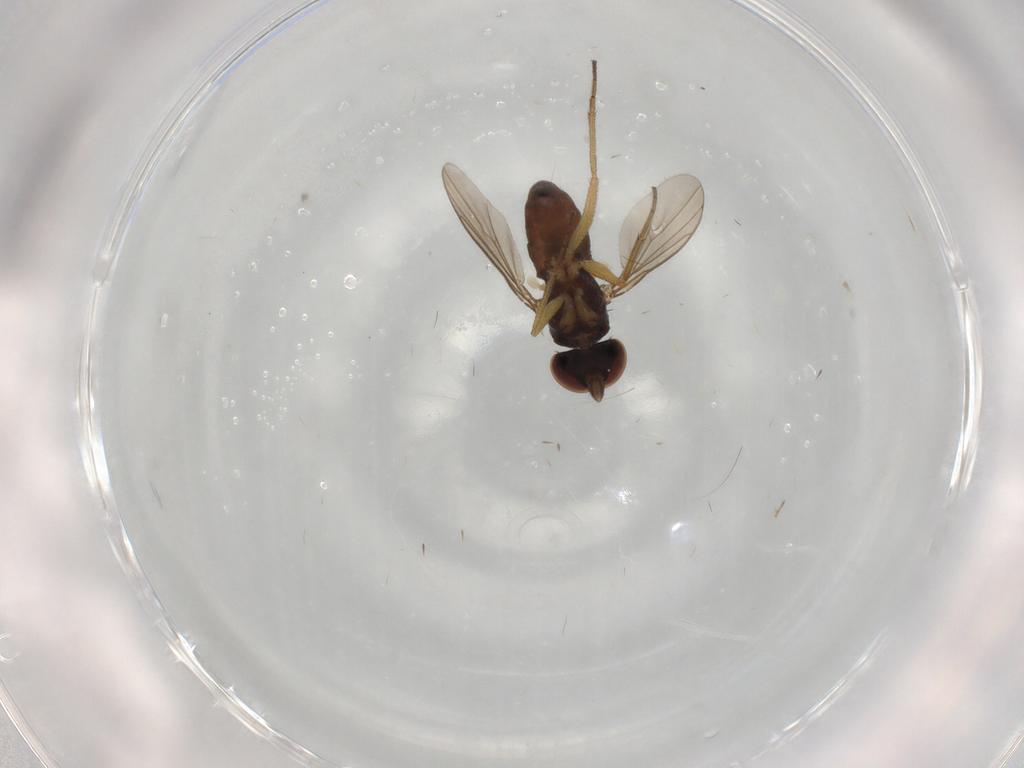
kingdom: Animalia
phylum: Arthropoda
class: Insecta
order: Diptera
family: Dolichopodidae
